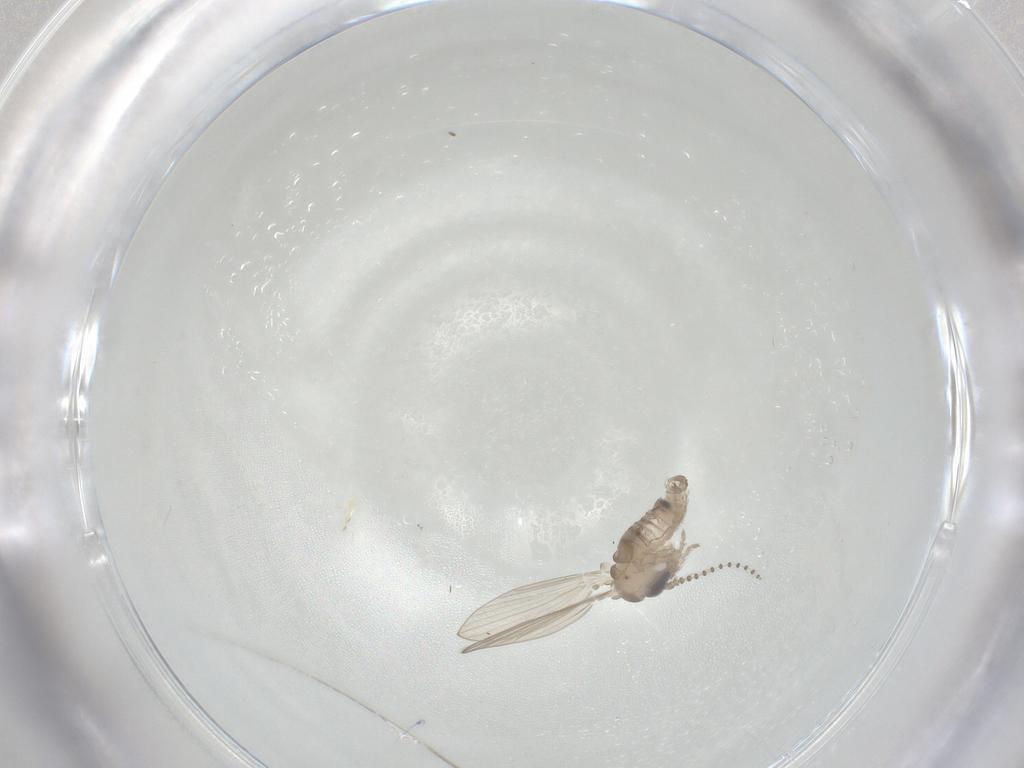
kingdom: Animalia
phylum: Arthropoda
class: Insecta
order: Diptera
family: Psychodidae
